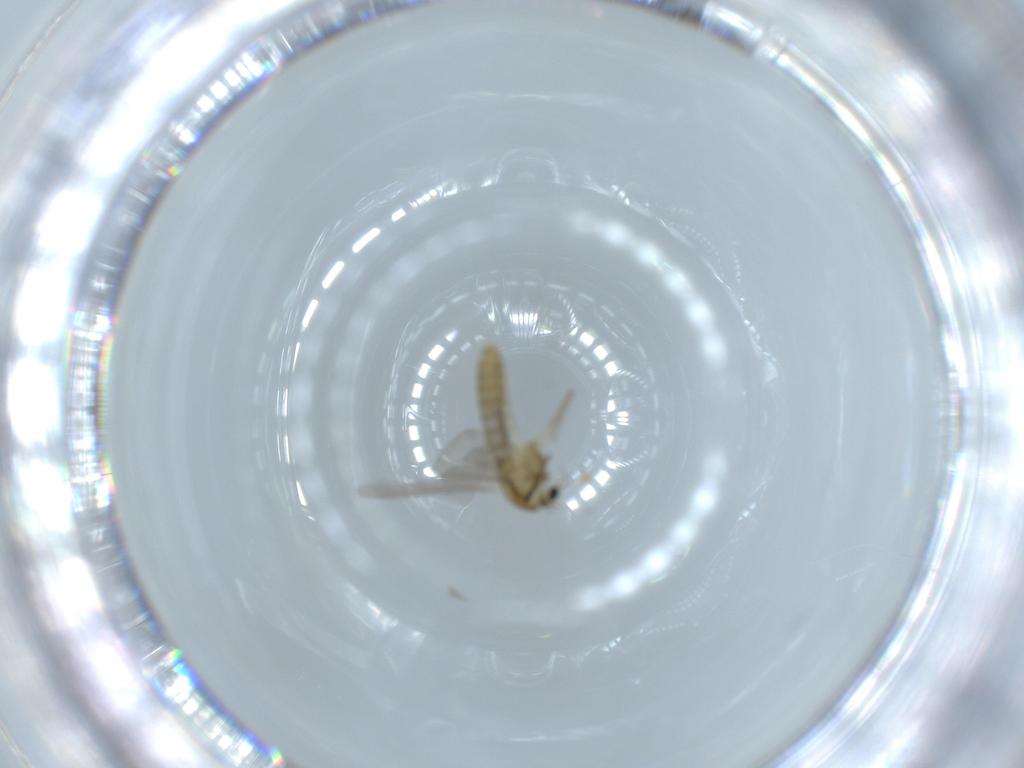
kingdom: Animalia
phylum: Arthropoda
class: Insecta
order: Diptera
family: Chironomidae
